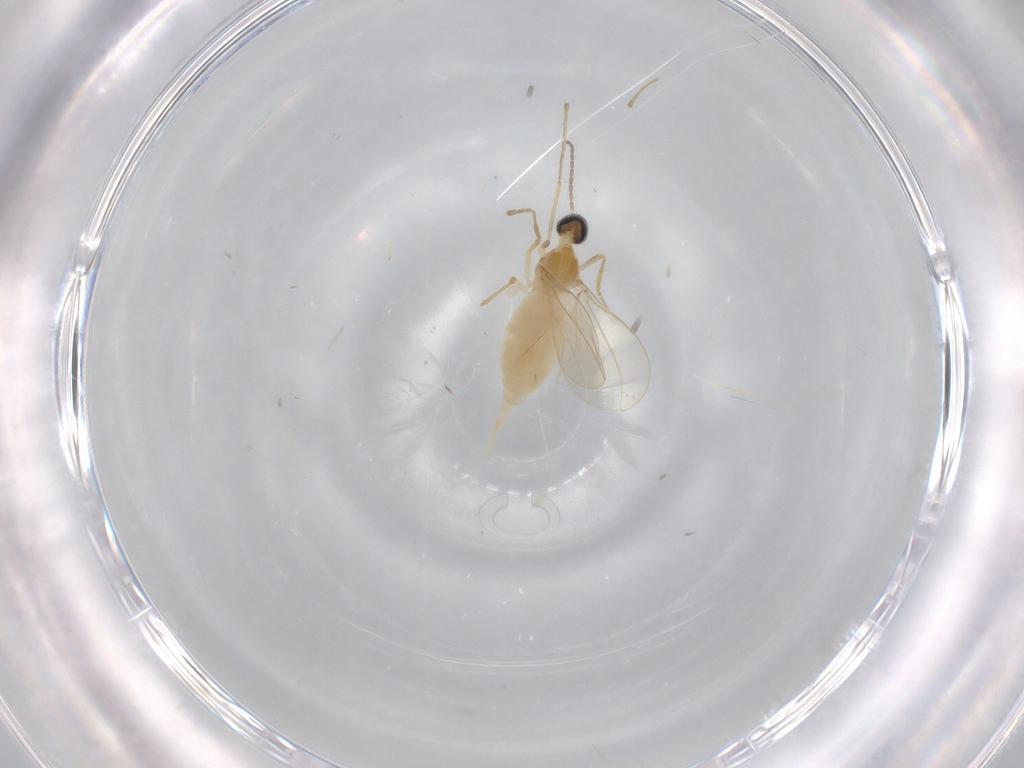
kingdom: Animalia
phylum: Arthropoda
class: Insecta
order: Diptera
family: Cecidomyiidae
